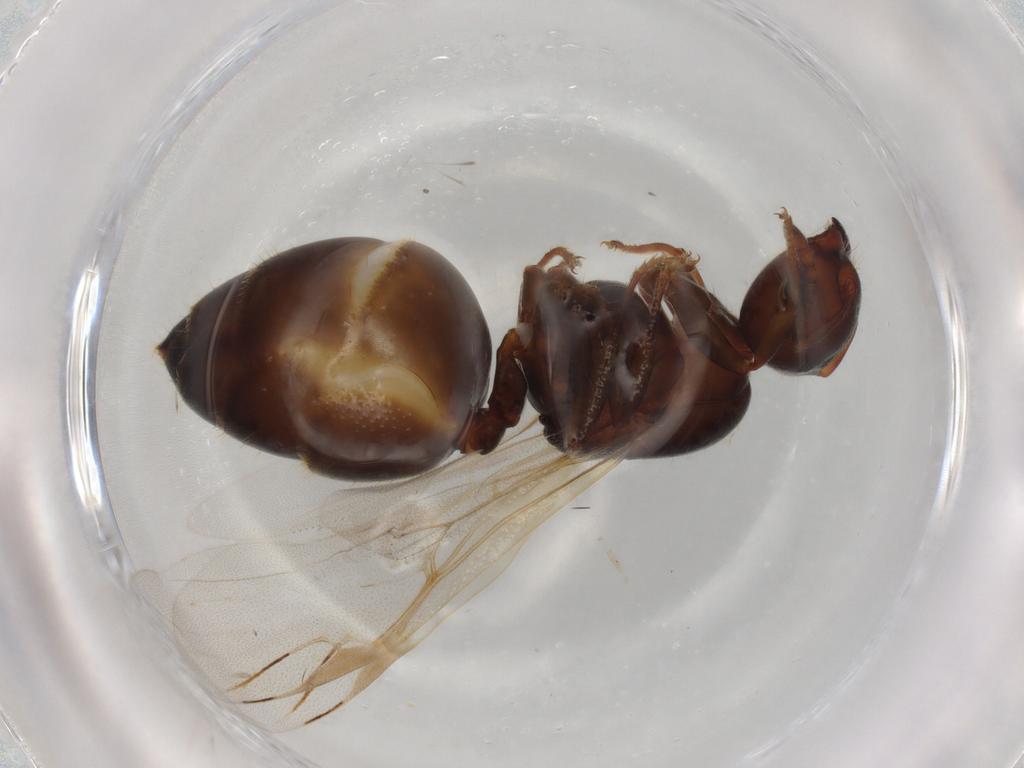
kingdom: Animalia
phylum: Arthropoda
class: Insecta
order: Hymenoptera
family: Formicidae
